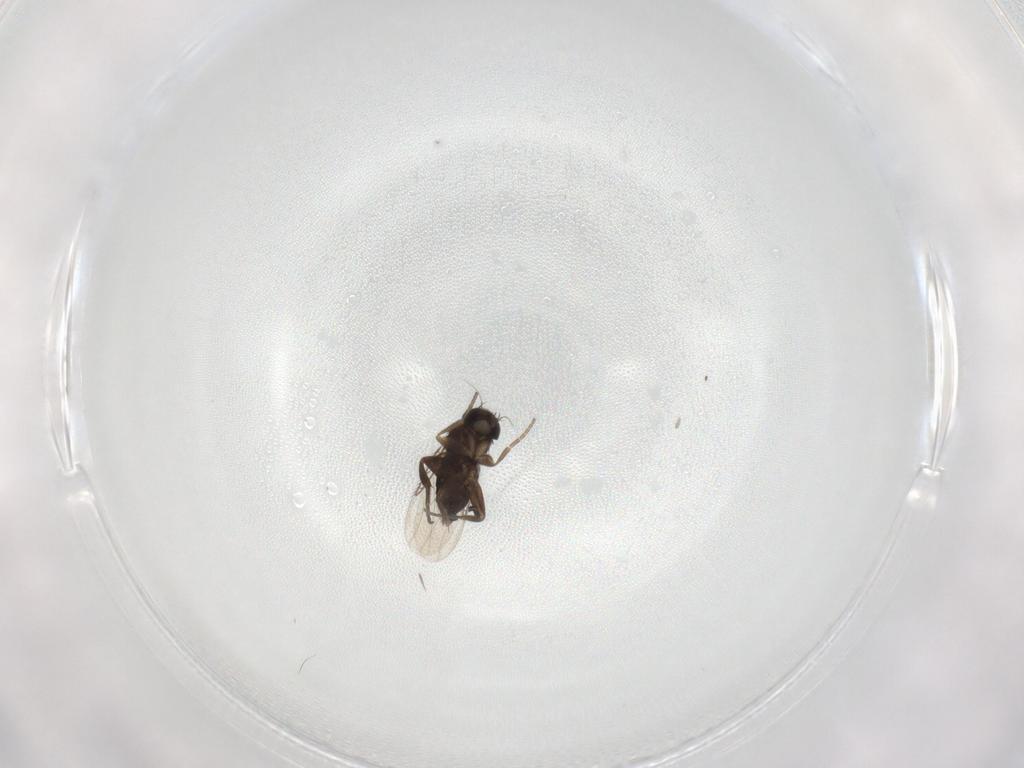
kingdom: Animalia
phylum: Arthropoda
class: Insecta
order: Diptera
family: Phoridae
